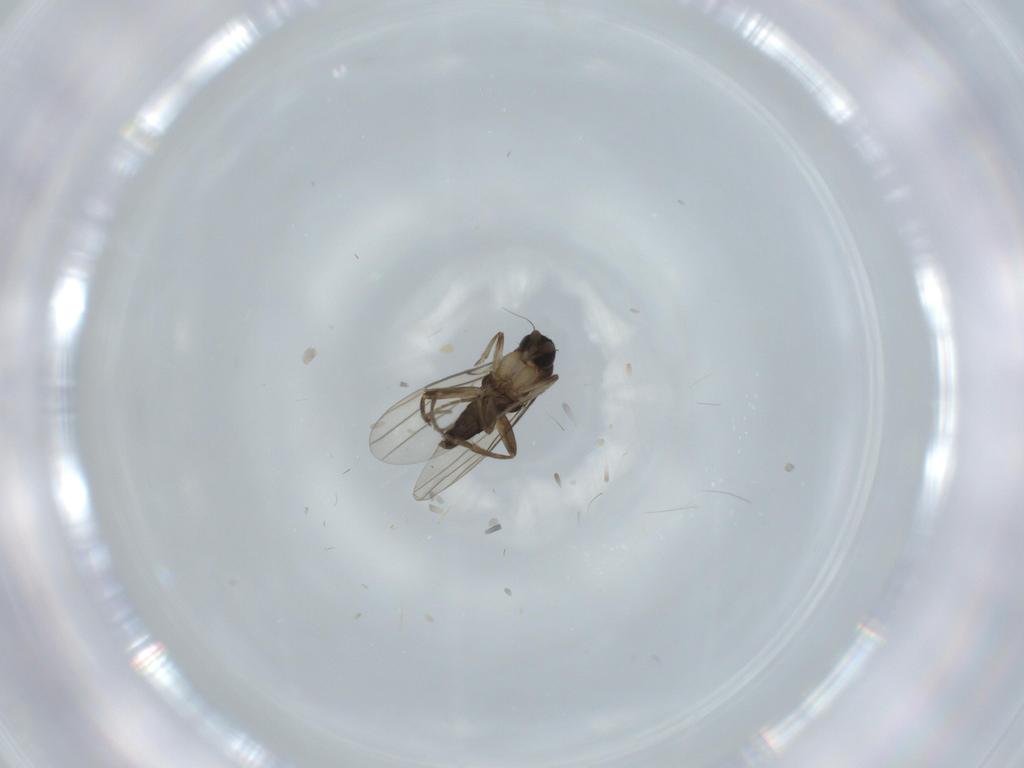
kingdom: Animalia
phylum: Arthropoda
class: Insecta
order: Diptera
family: Phoridae
